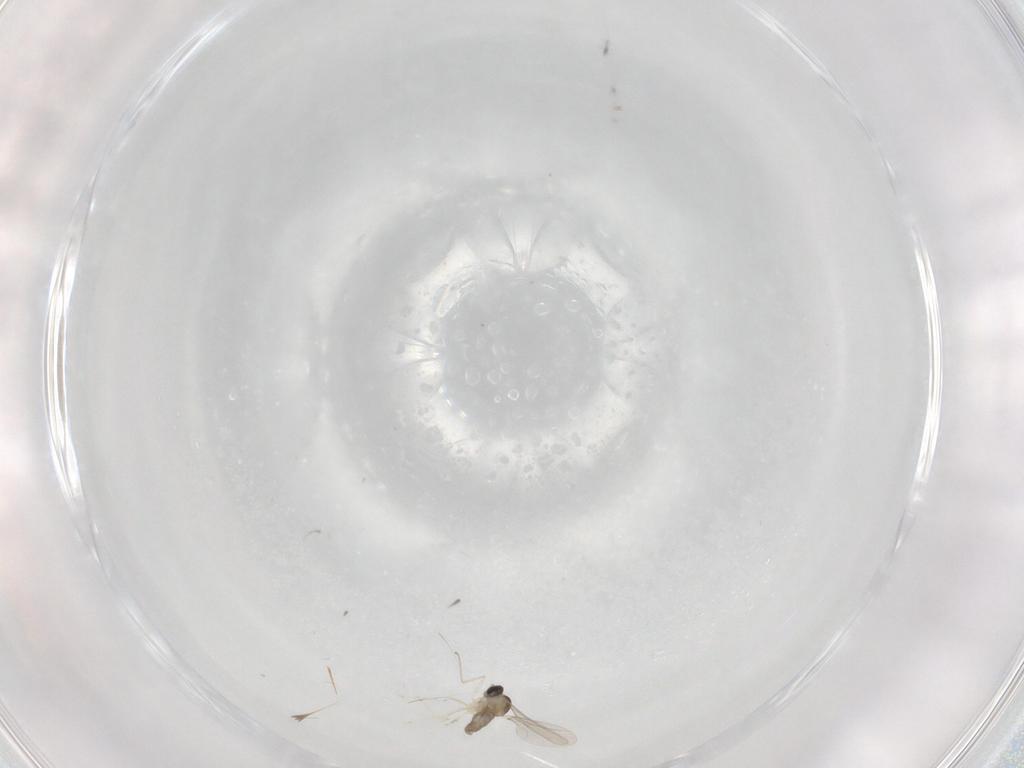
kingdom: Animalia
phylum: Arthropoda
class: Insecta
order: Diptera
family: Cecidomyiidae
